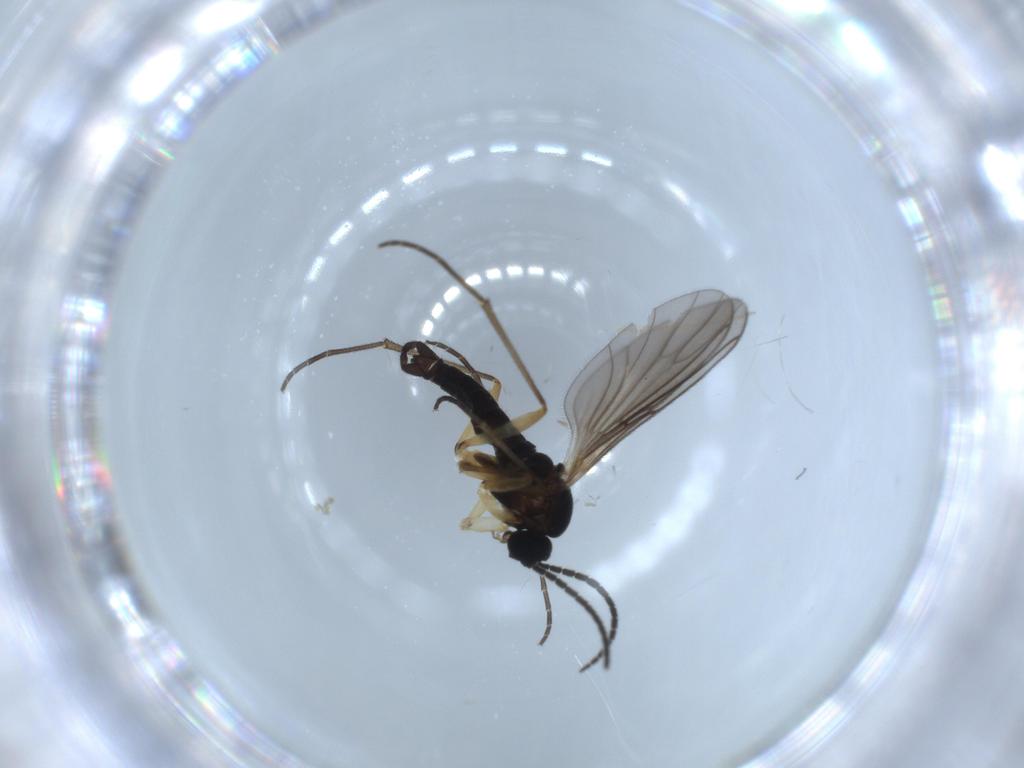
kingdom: Animalia
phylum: Arthropoda
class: Insecta
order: Diptera
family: Sciaridae
